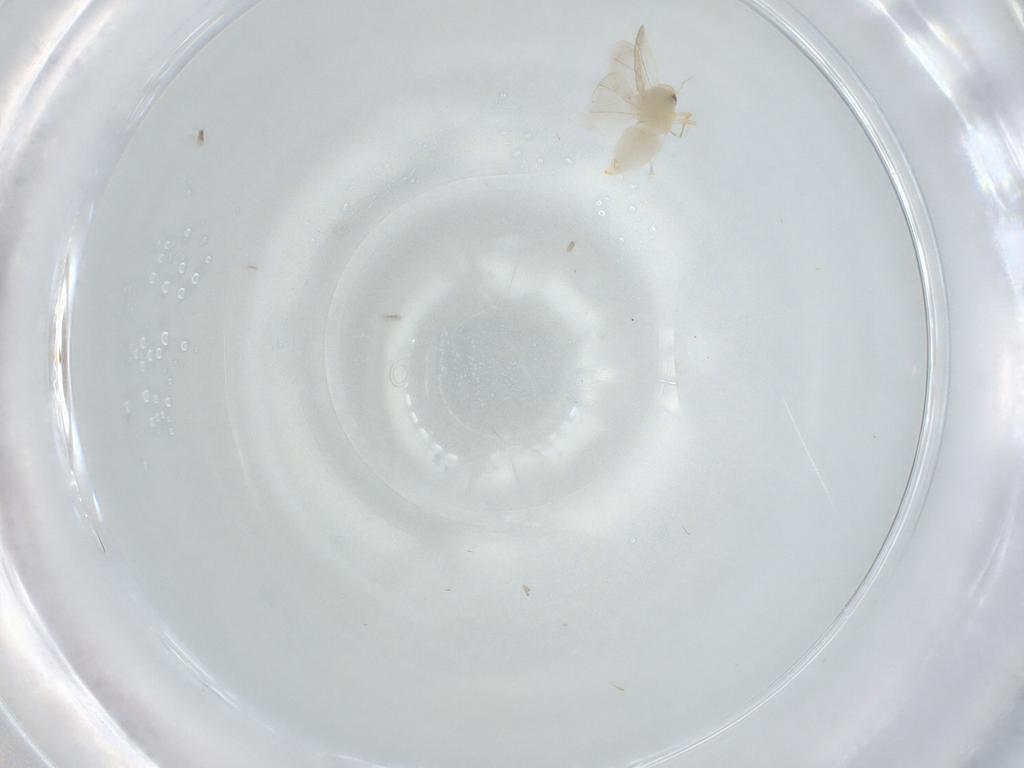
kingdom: Animalia
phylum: Arthropoda
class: Insecta
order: Hemiptera
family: Aleyrodidae
